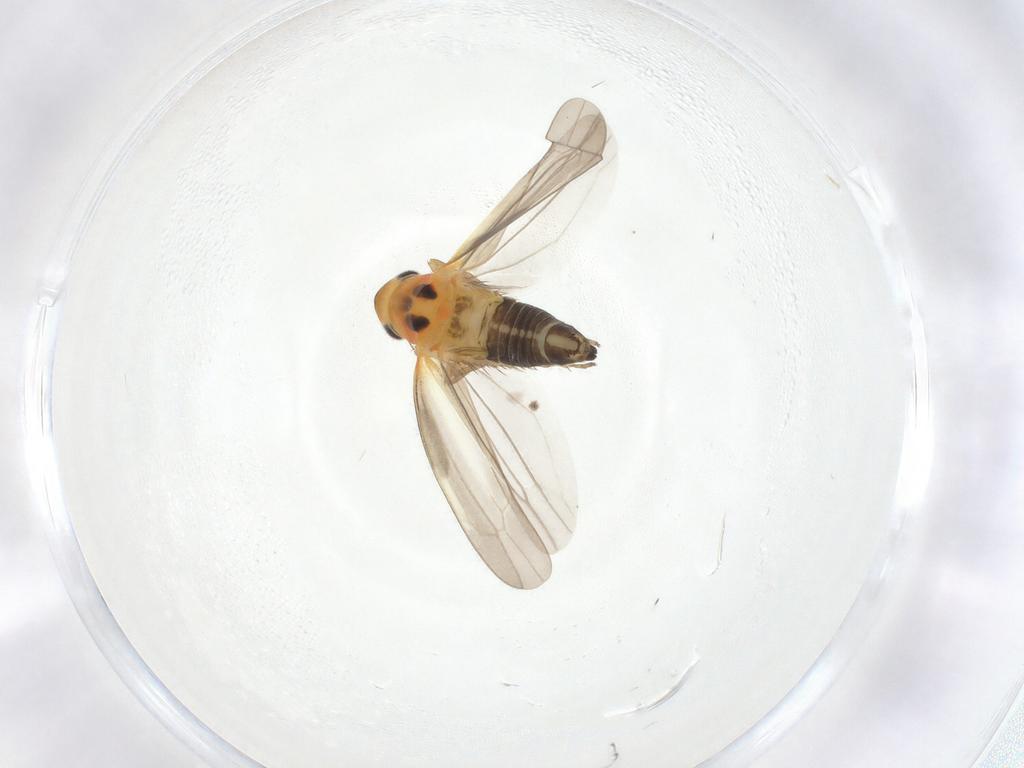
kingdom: Animalia
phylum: Arthropoda
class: Insecta
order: Hemiptera
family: Cicadellidae
